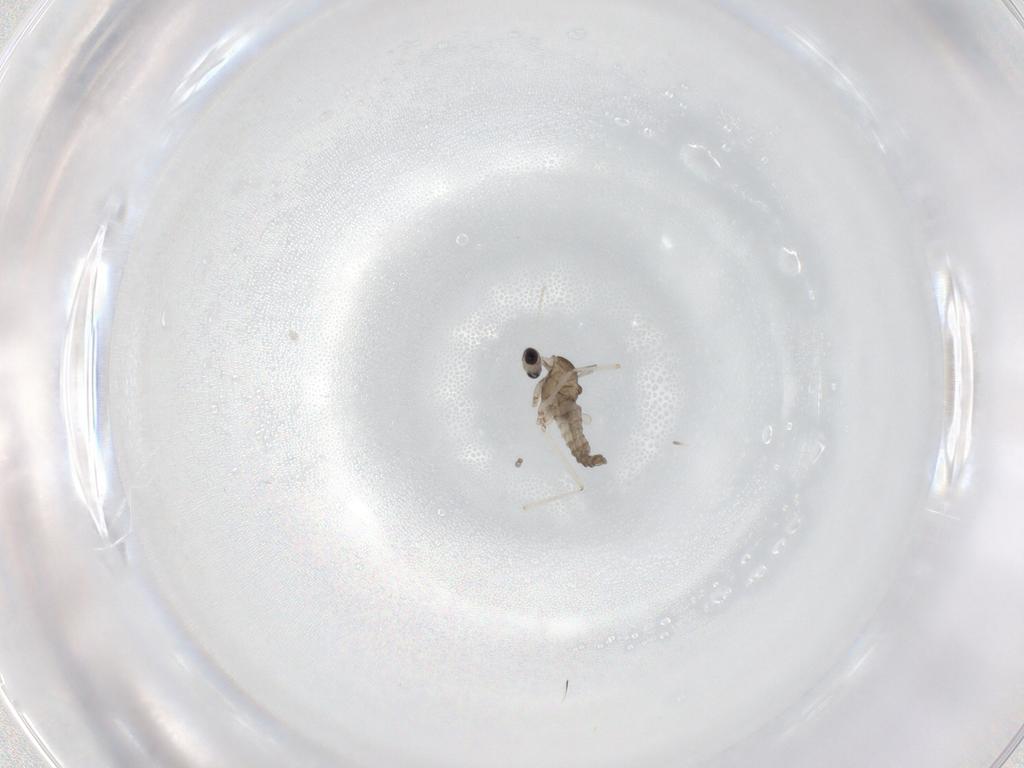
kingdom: Animalia
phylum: Arthropoda
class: Insecta
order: Diptera
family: Cecidomyiidae
